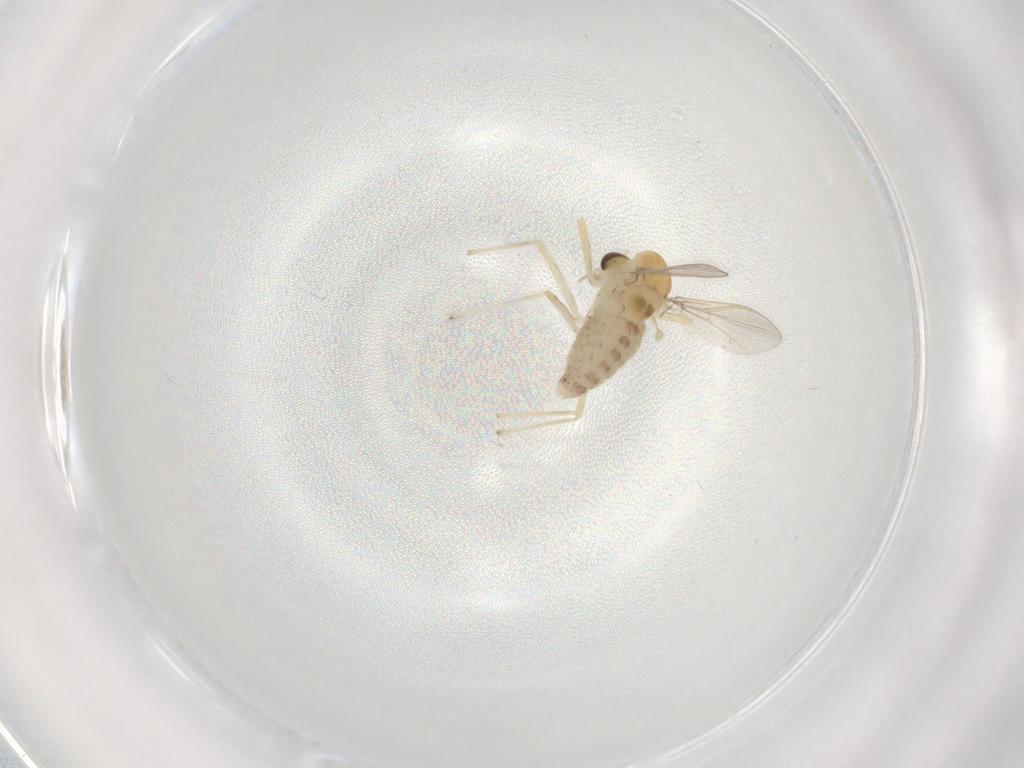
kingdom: Animalia
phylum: Arthropoda
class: Insecta
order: Diptera
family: Chironomidae
